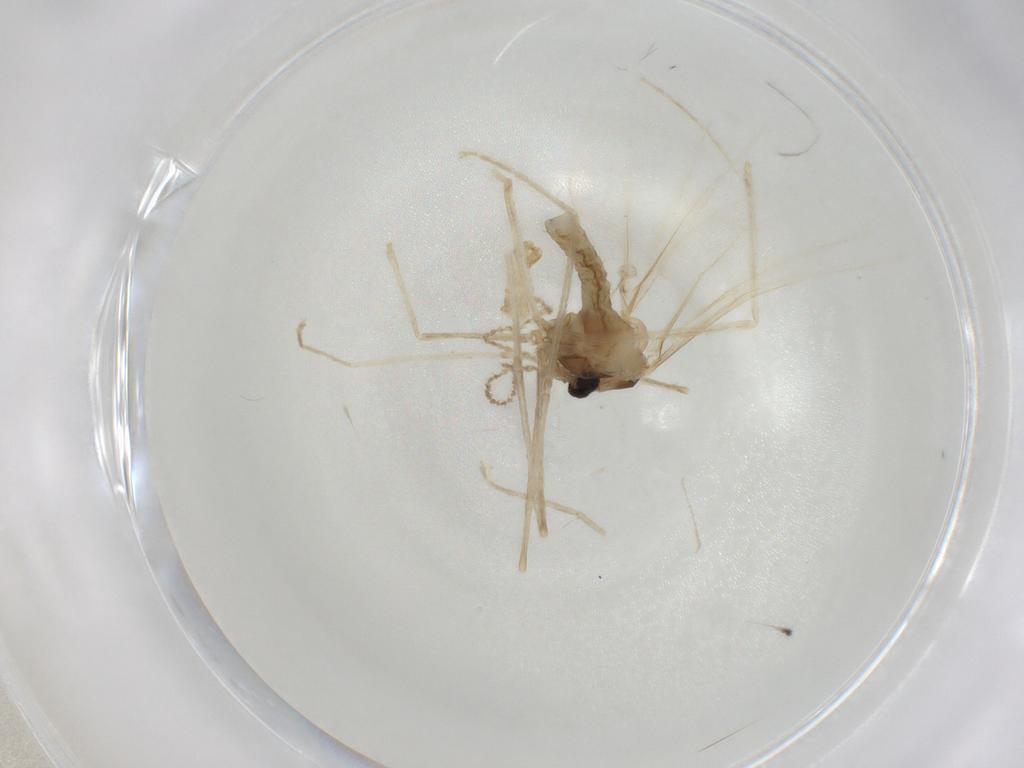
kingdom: Animalia
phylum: Arthropoda
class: Insecta
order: Diptera
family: Cecidomyiidae
